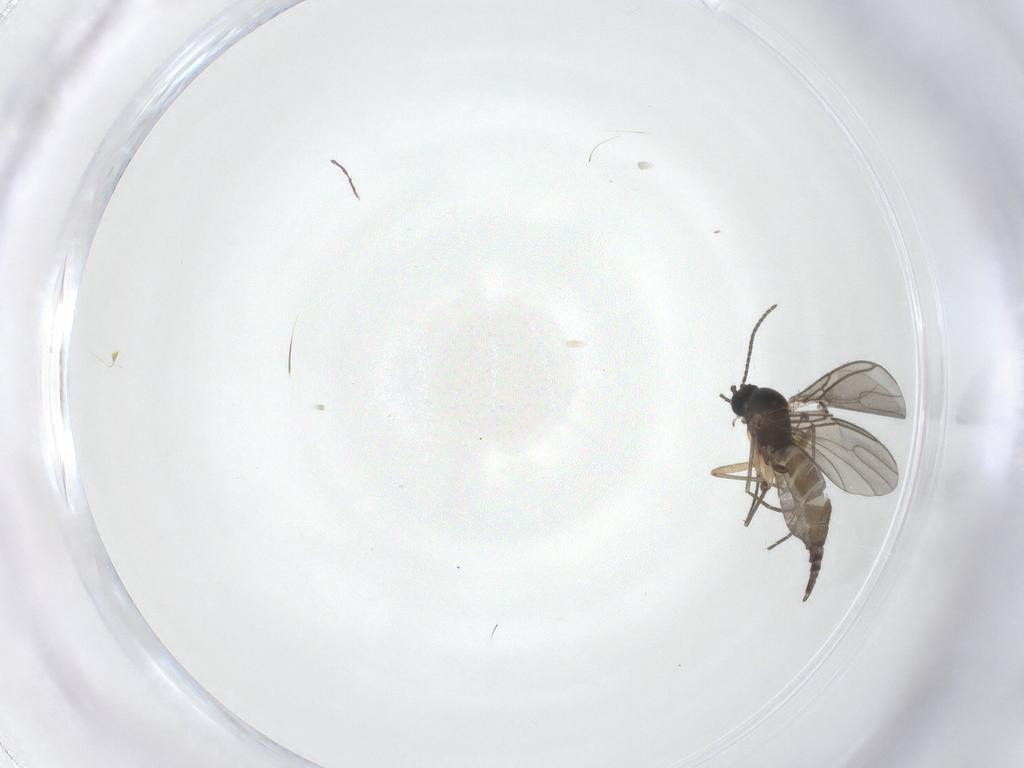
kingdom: Animalia
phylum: Arthropoda
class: Insecta
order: Diptera
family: Sciaridae
